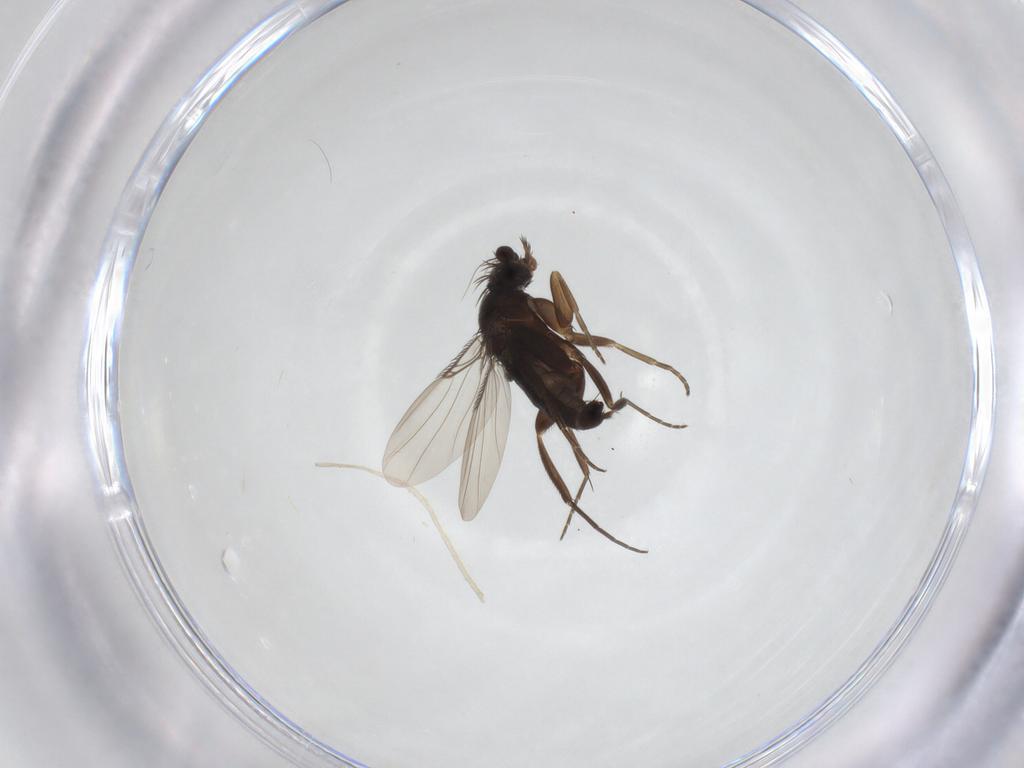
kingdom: Animalia
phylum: Arthropoda
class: Insecta
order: Diptera
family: Phoridae
